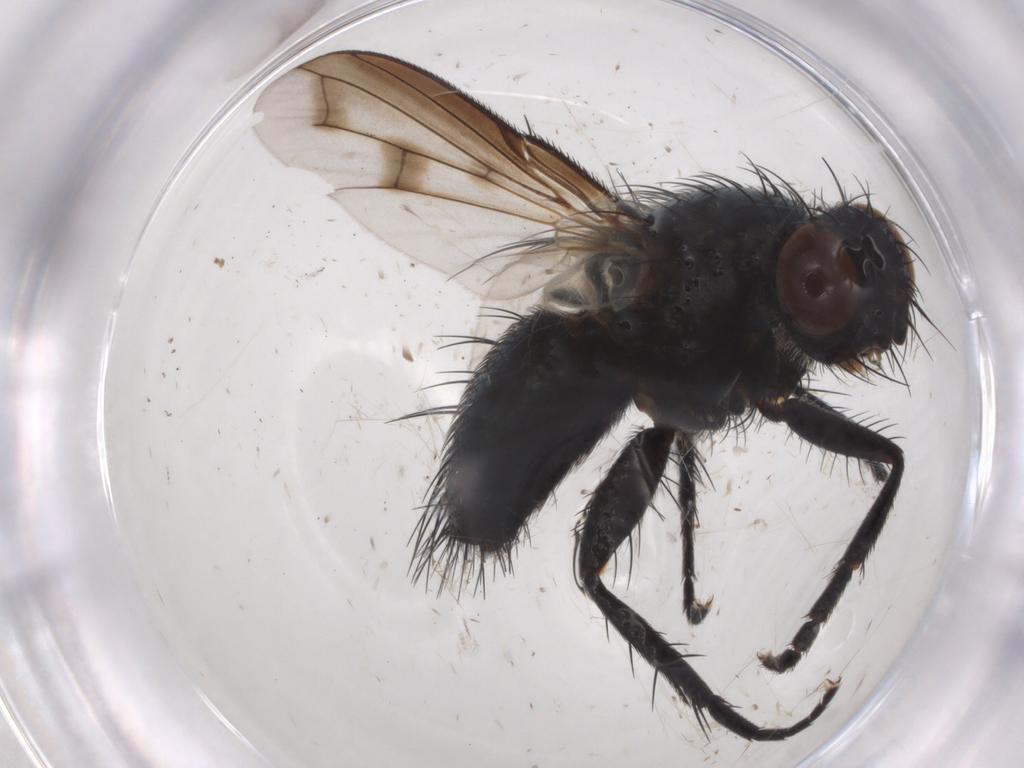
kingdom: Animalia
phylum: Arthropoda
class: Insecta
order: Diptera
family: Tachinidae
